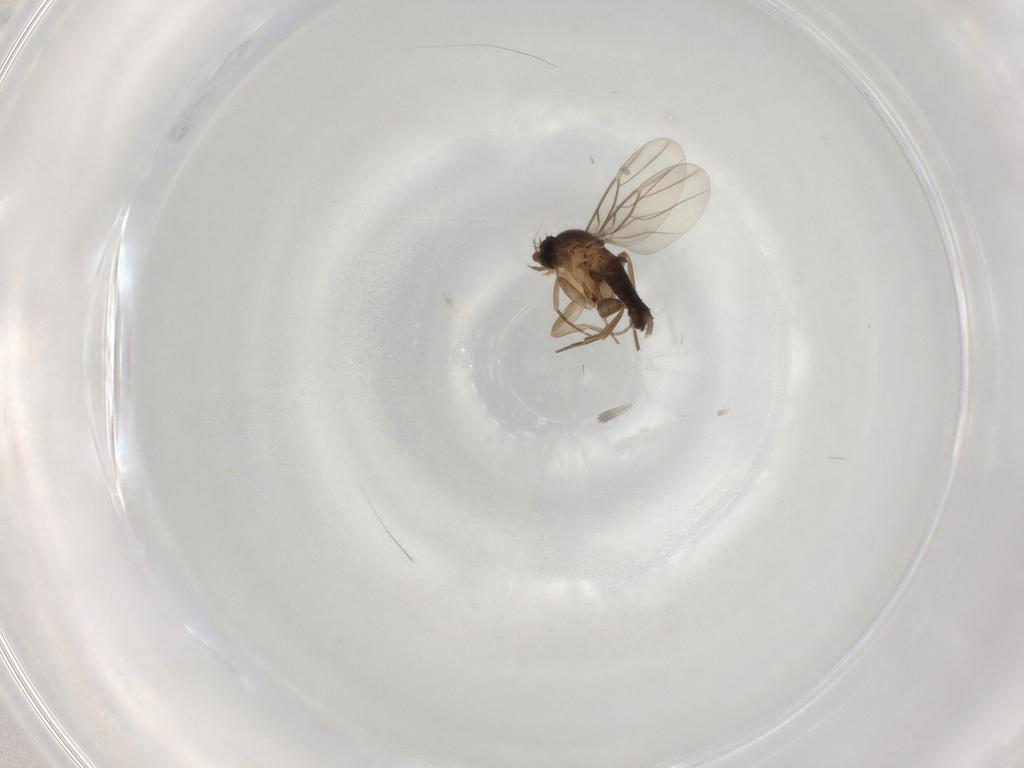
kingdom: Animalia
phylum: Arthropoda
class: Insecta
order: Diptera
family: Phoridae
